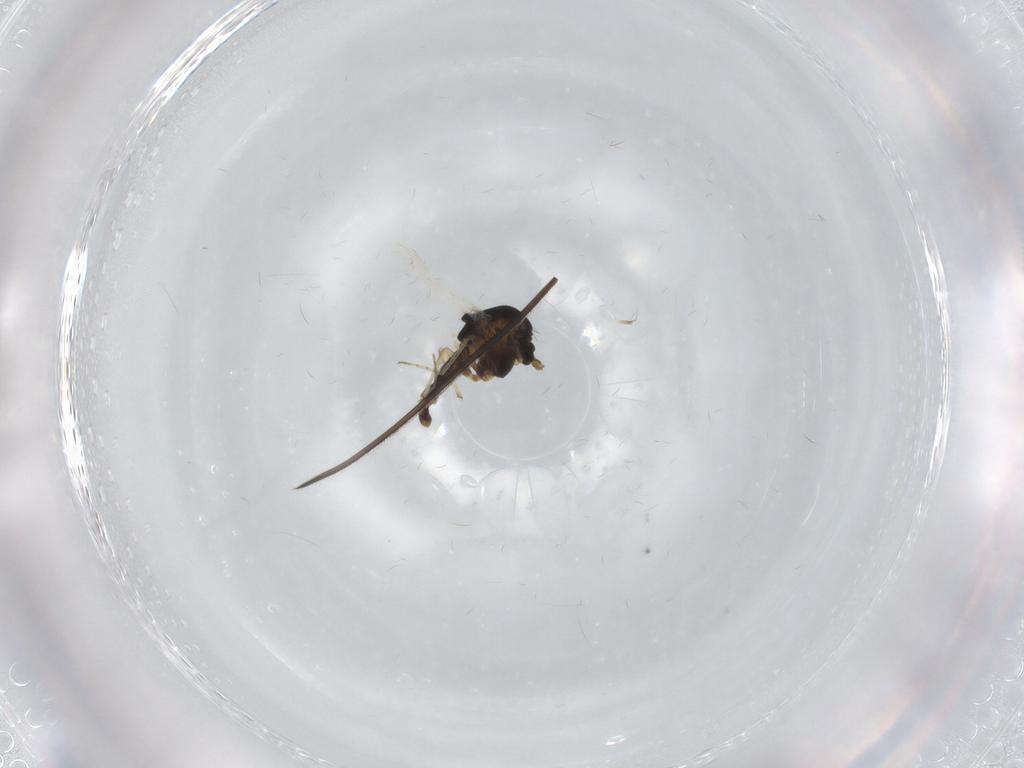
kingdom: Animalia
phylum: Arthropoda
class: Insecta
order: Diptera
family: Chironomidae
